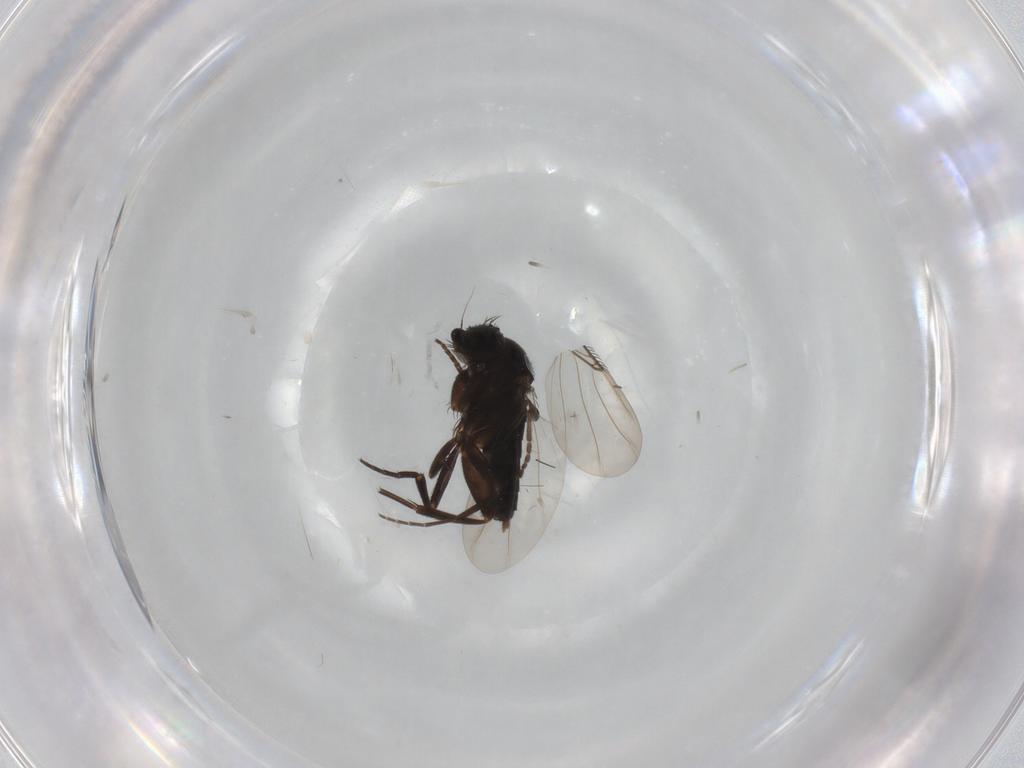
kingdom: Animalia
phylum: Arthropoda
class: Insecta
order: Diptera
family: Phoridae
